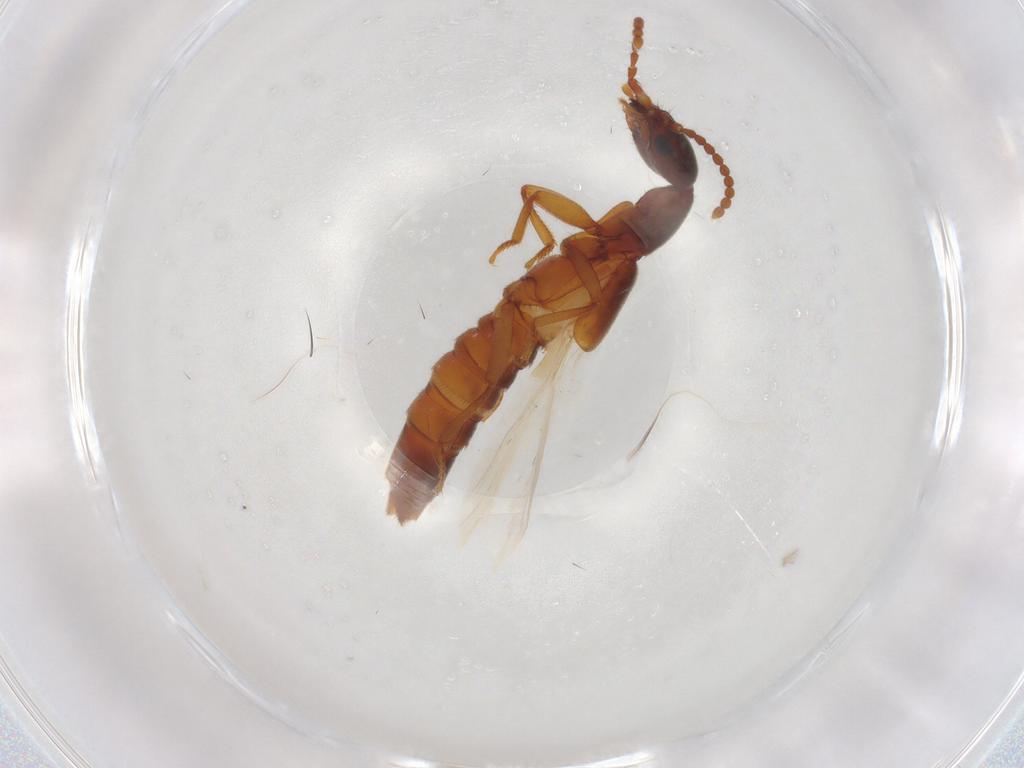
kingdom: Animalia
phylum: Arthropoda
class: Insecta
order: Coleoptera
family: Staphylinidae
